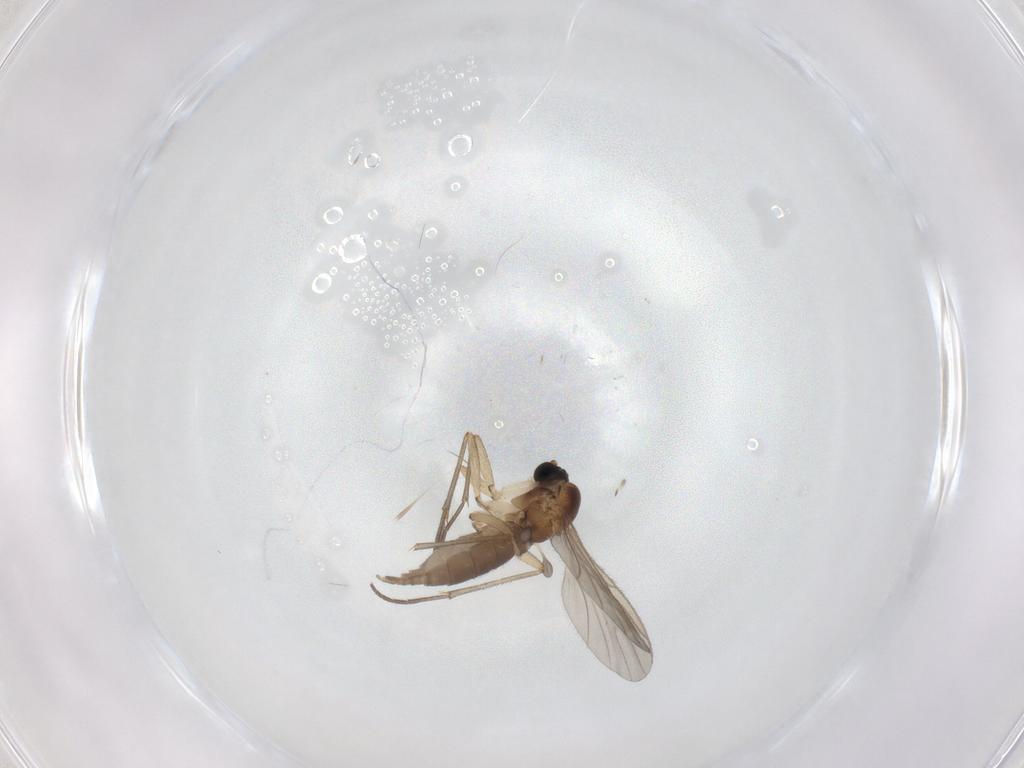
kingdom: Animalia
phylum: Arthropoda
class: Insecta
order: Diptera
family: Sciaridae
